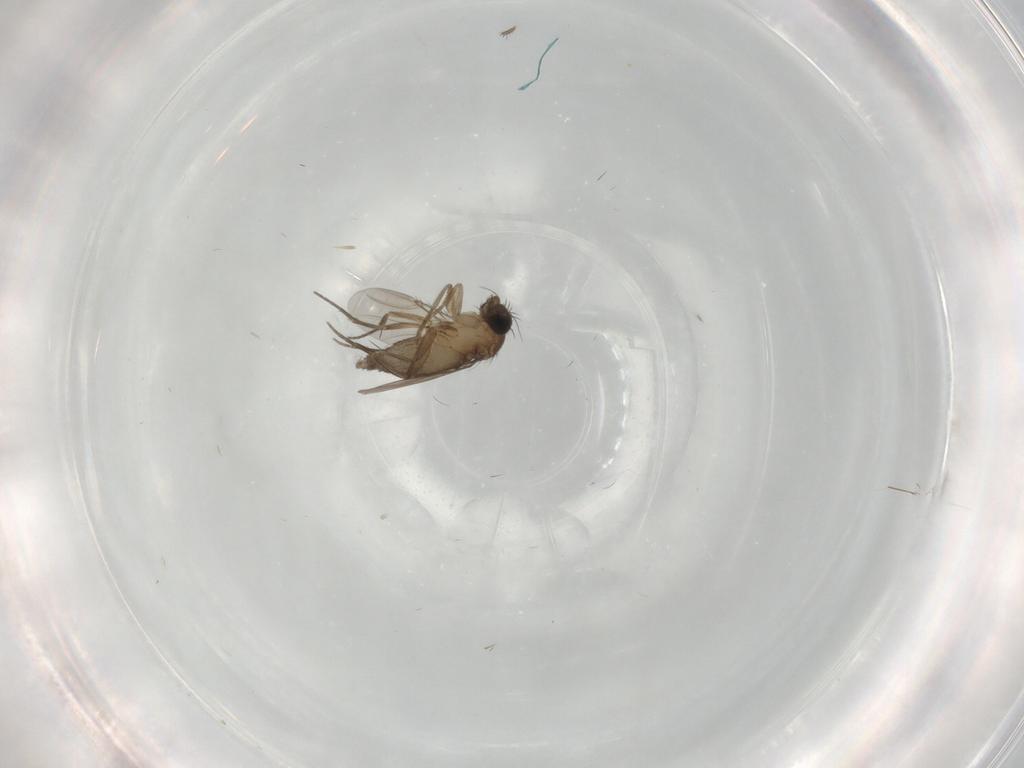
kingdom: Animalia
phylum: Arthropoda
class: Insecta
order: Diptera
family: Phoridae
